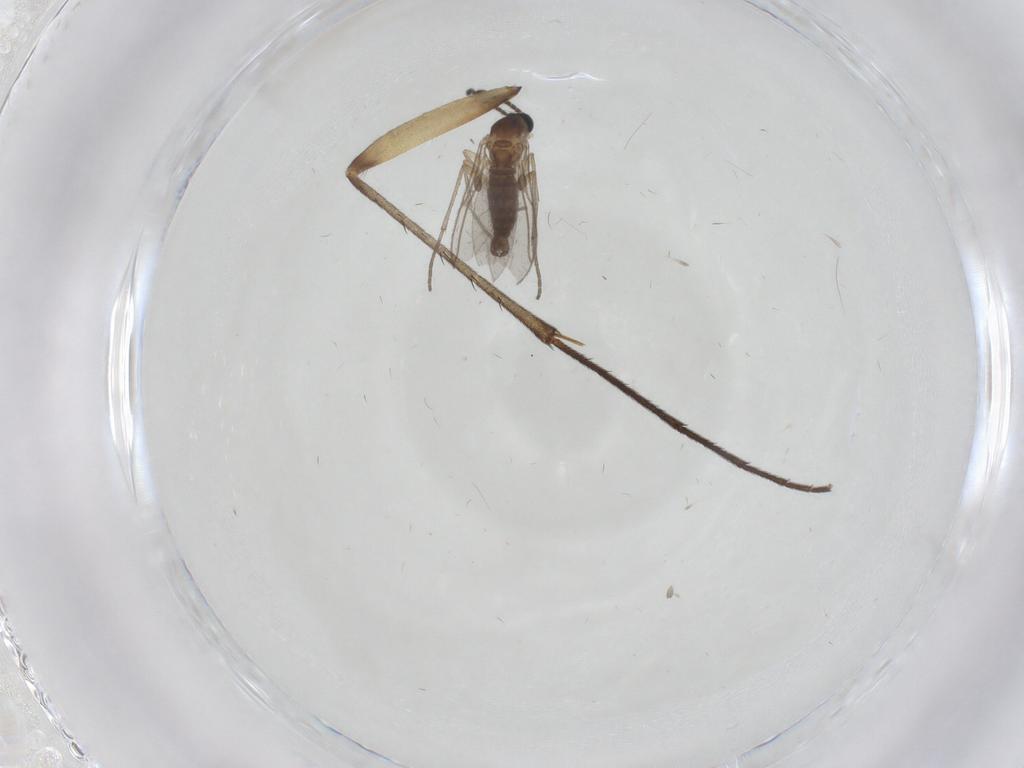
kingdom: Animalia
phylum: Arthropoda
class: Insecta
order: Diptera
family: Sciaridae
